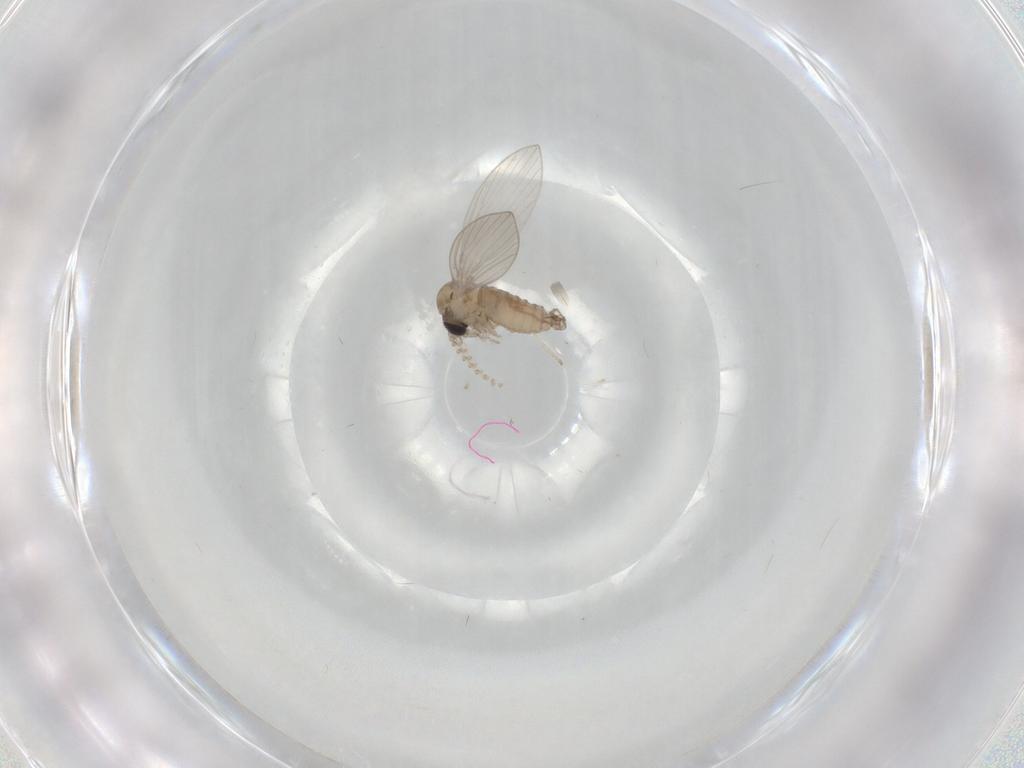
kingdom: Animalia
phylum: Arthropoda
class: Insecta
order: Diptera
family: Psychodidae
